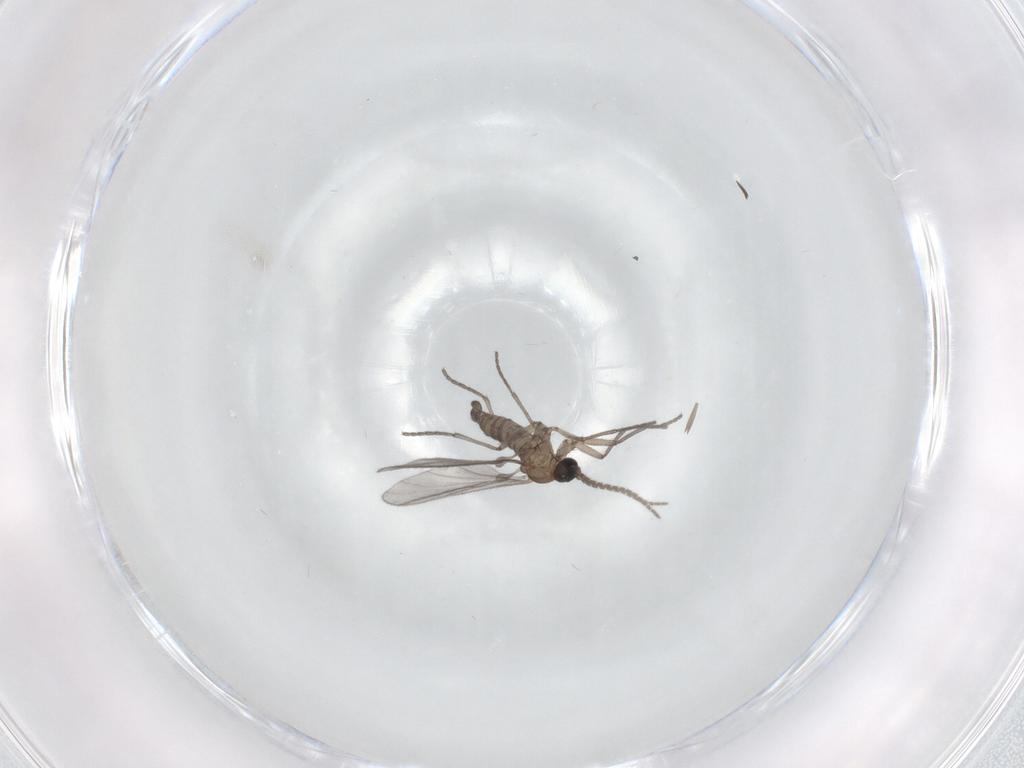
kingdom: Animalia
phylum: Arthropoda
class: Insecta
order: Diptera
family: Sciaridae
